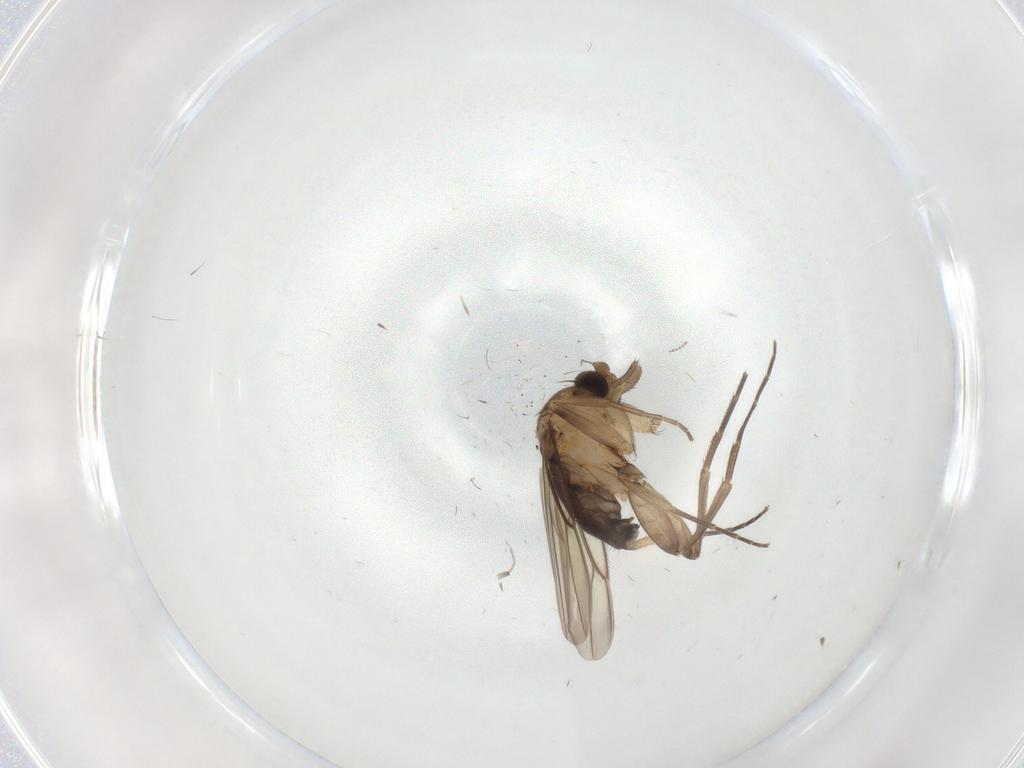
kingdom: Animalia
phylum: Arthropoda
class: Insecta
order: Diptera
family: Phoridae
